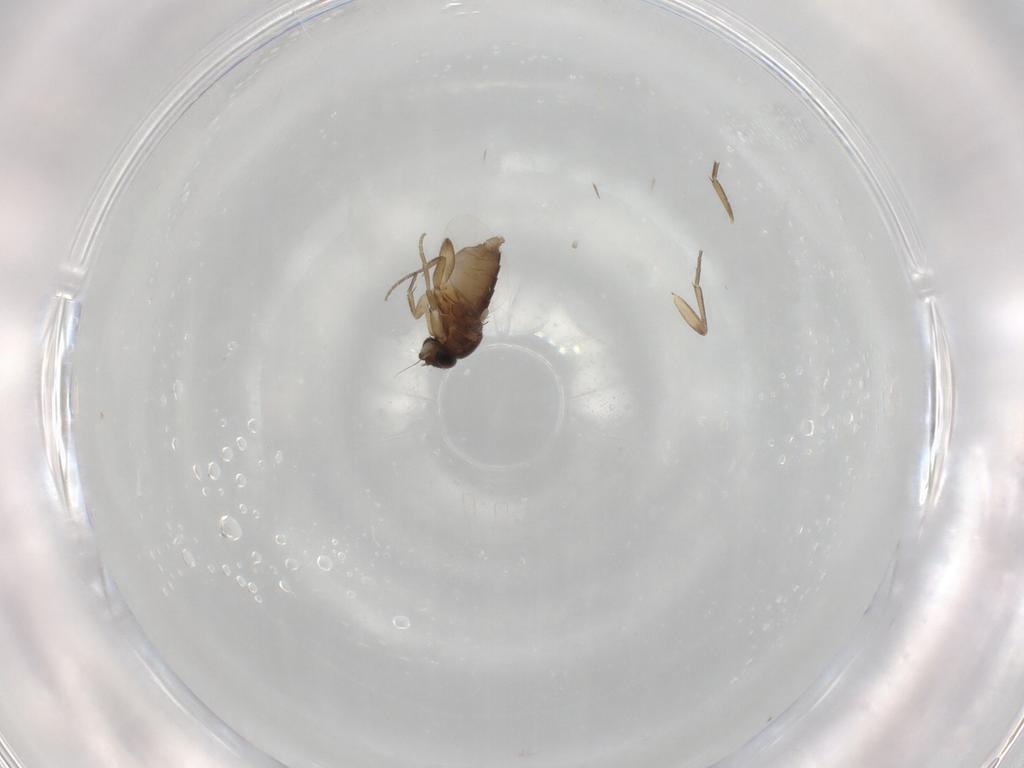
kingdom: Animalia
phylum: Arthropoda
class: Insecta
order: Diptera
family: Phoridae
